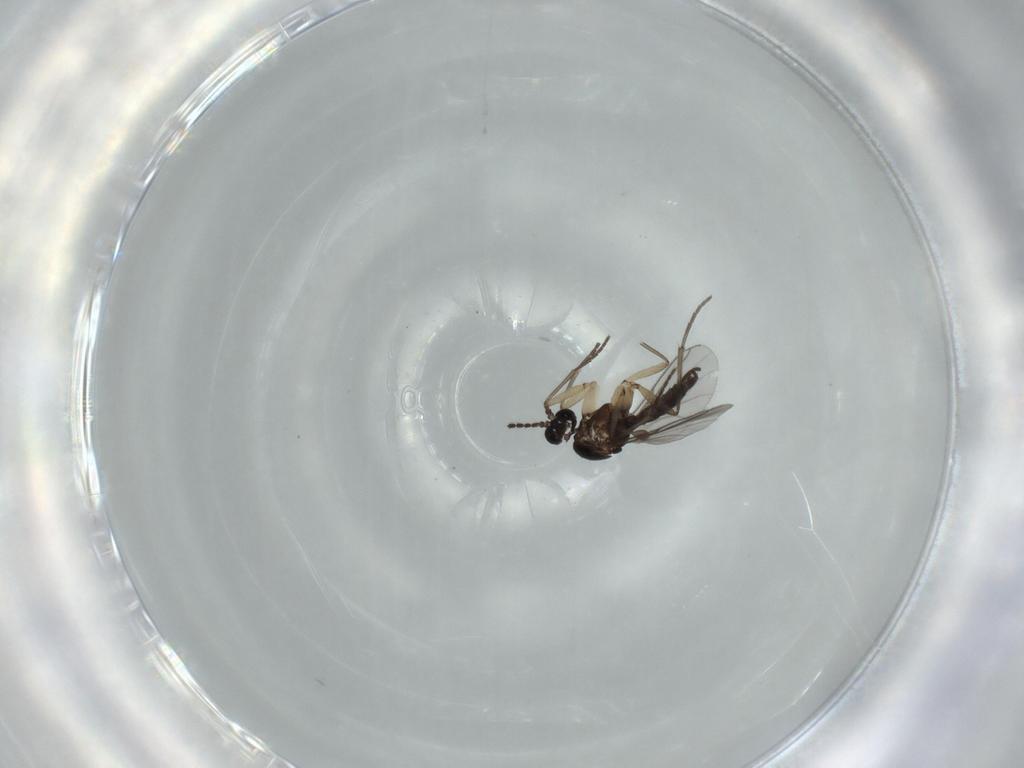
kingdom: Animalia
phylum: Arthropoda
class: Insecta
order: Diptera
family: Sciaridae
